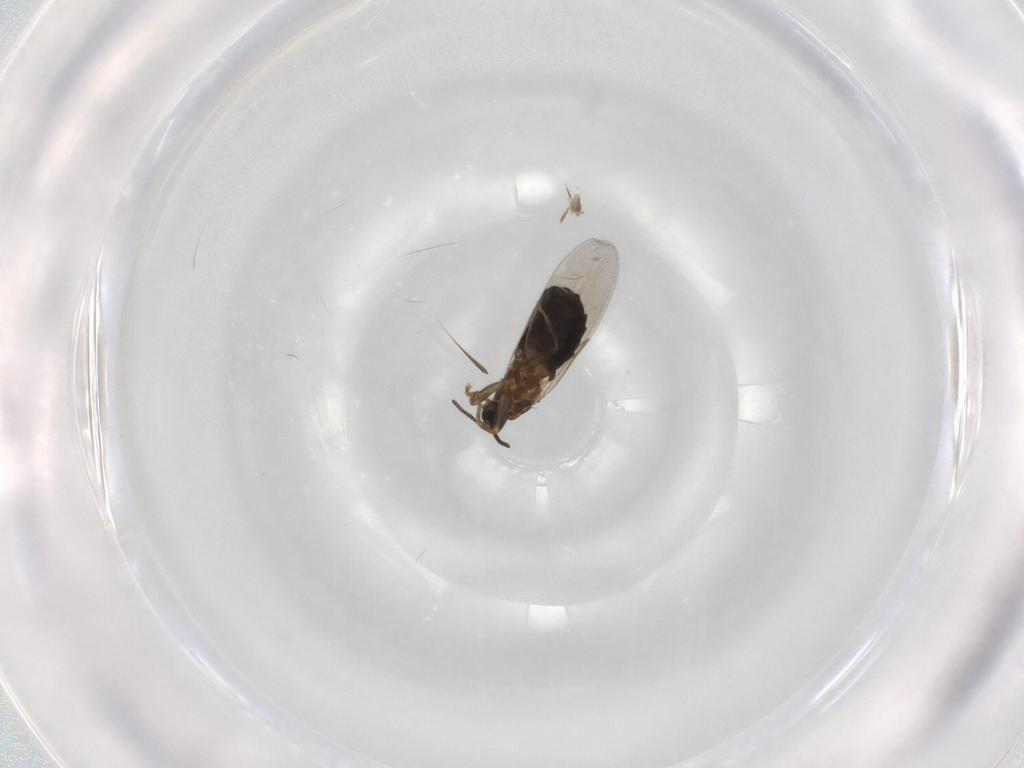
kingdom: Animalia
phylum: Arthropoda
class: Insecta
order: Diptera
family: Scatopsidae
